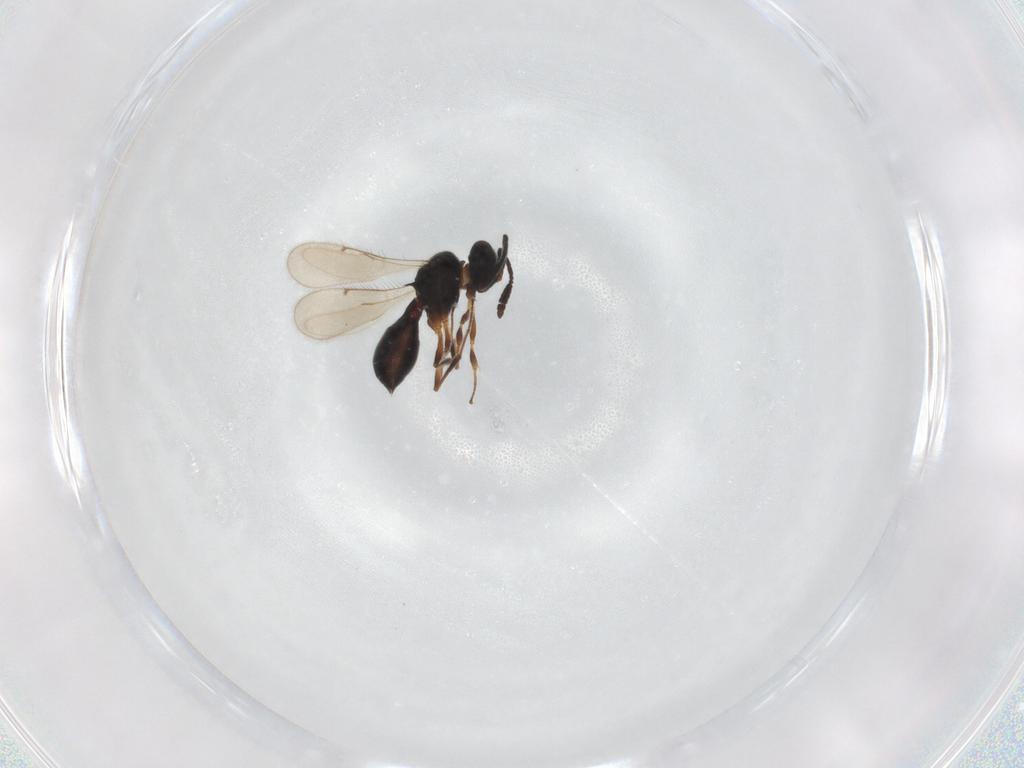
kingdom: Animalia
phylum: Arthropoda
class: Insecta
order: Hymenoptera
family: Scelionidae
